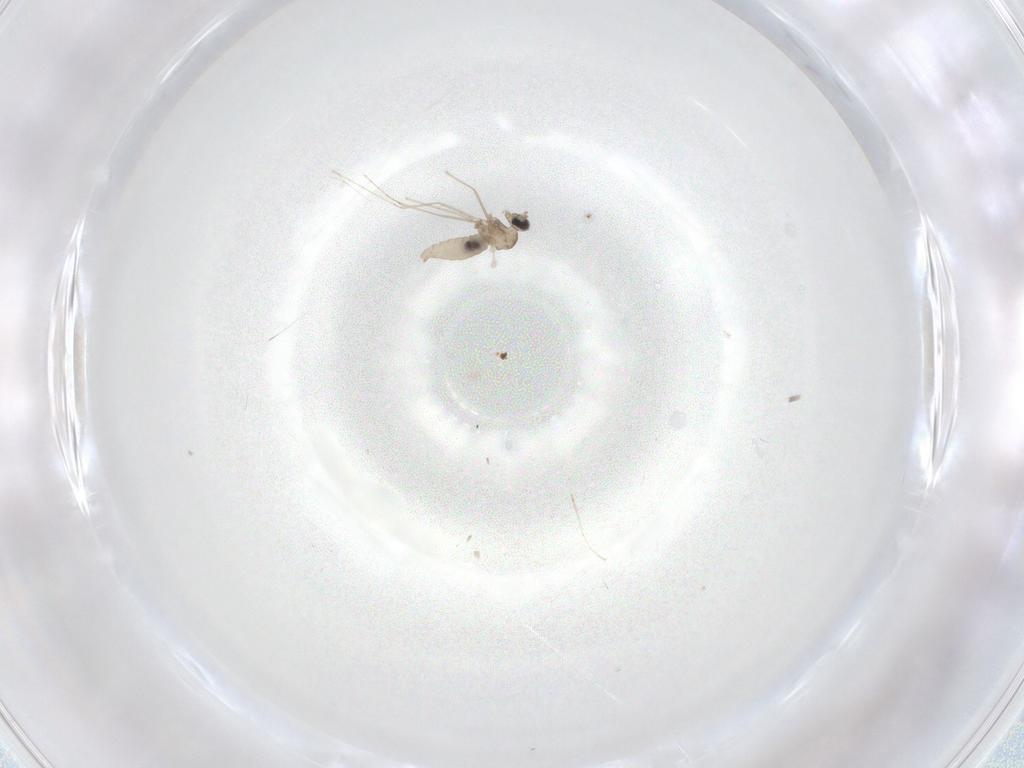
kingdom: Animalia
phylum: Arthropoda
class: Insecta
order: Diptera
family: Cecidomyiidae
